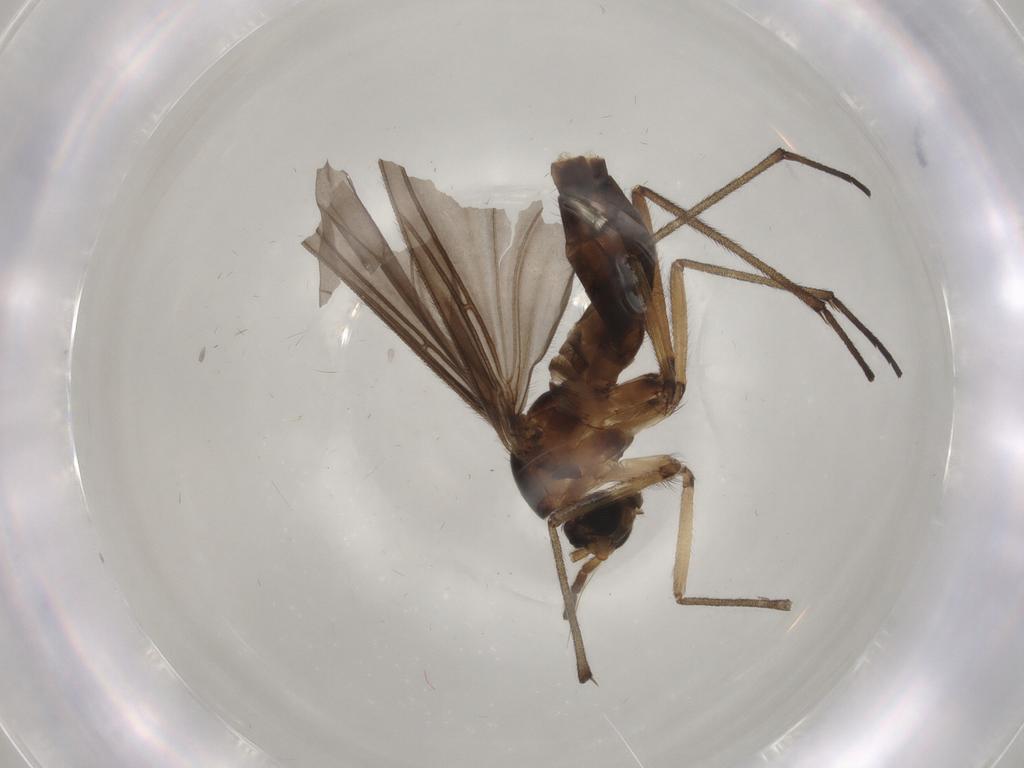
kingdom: Animalia
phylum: Arthropoda
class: Insecta
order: Diptera
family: Sciaridae
